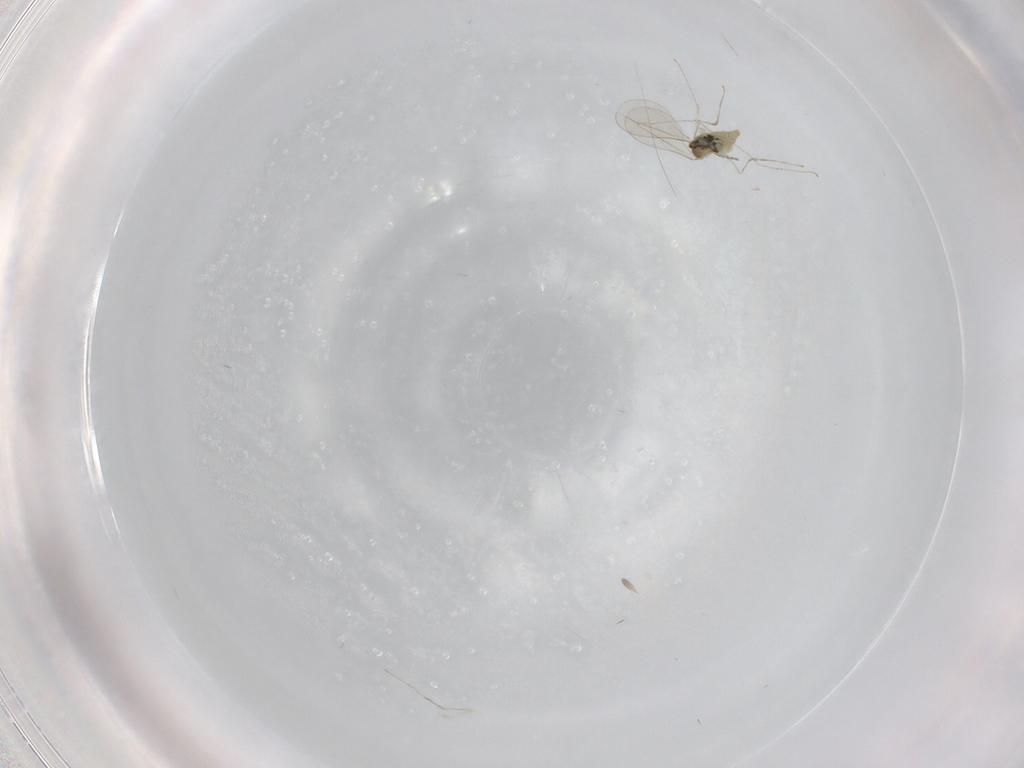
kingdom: Animalia
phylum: Arthropoda
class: Insecta
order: Diptera
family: Cecidomyiidae
